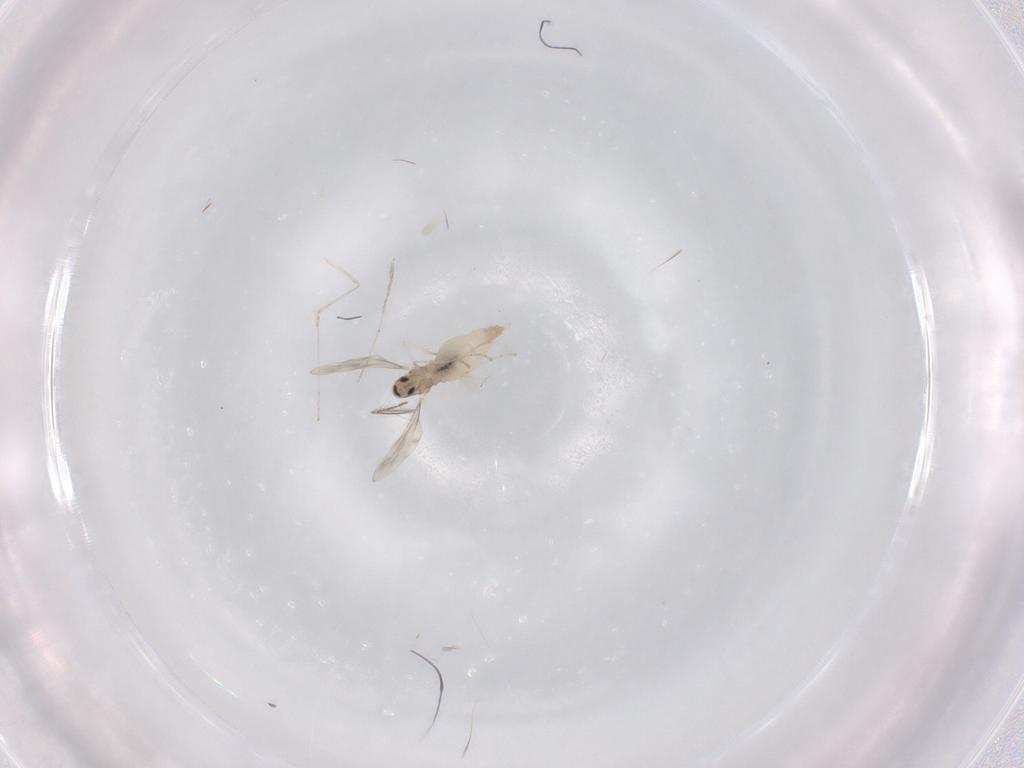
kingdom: Animalia
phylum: Arthropoda
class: Insecta
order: Diptera
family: Cecidomyiidae
